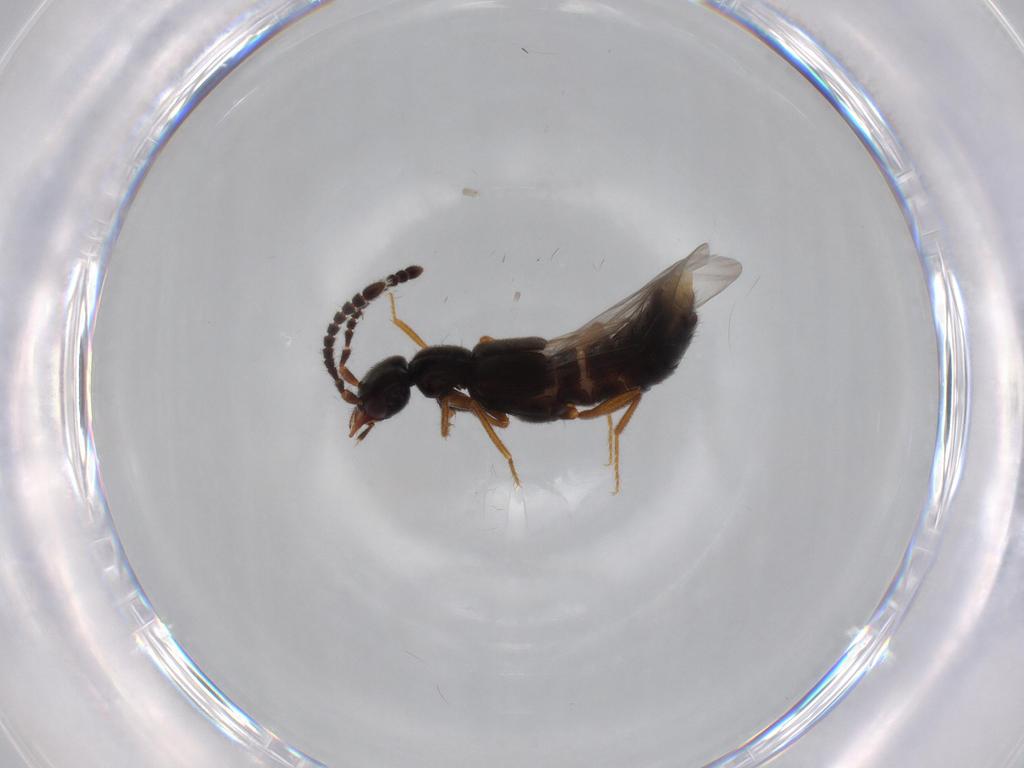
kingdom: Animalia
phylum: Arthropoda
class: Insecta
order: Coleoptera
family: Staphylinidae
